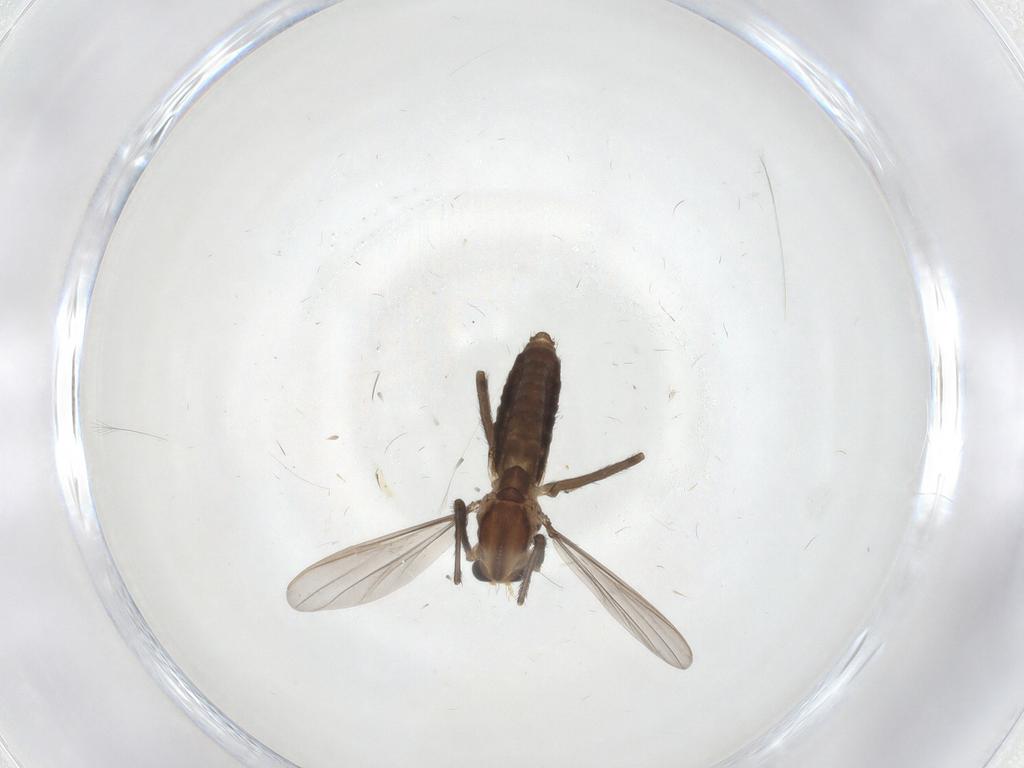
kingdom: Animalia
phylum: Arthropoda
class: Insecta
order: Diptera
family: Chironomidae
